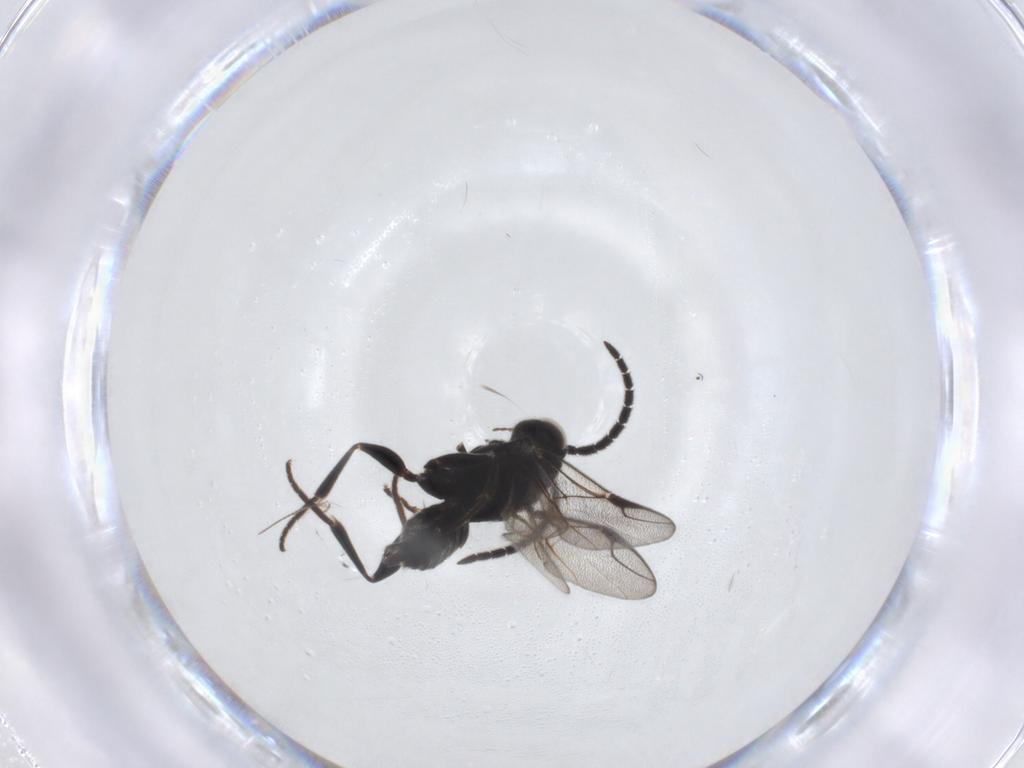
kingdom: Animalia
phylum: Arthropoda
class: Insecta
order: Hymenoptera
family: Dryinidae
